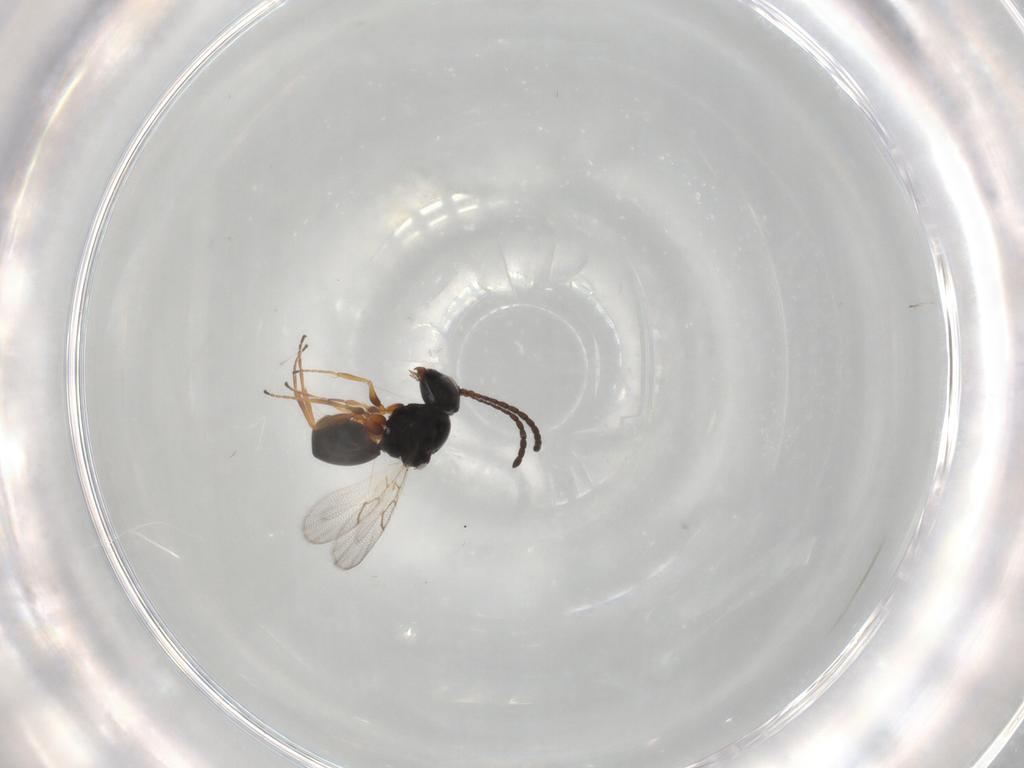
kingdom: Animalia
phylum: Arthropoda
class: Insecta
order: Hymenoptera
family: Figitidae
